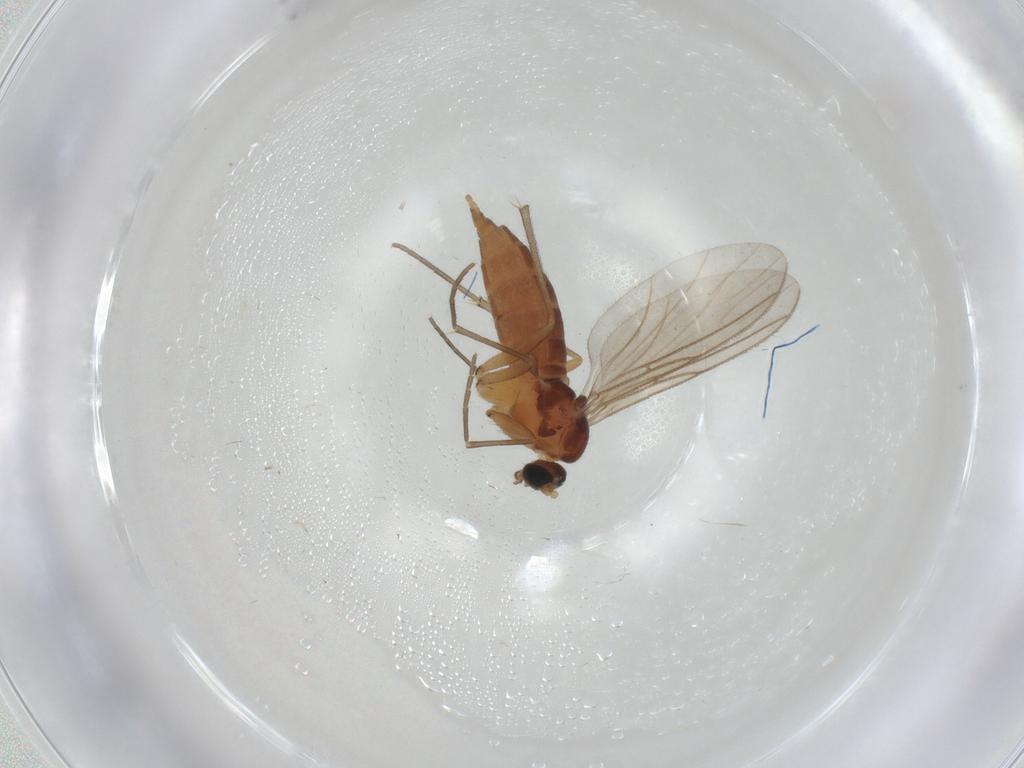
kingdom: Animalia
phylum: Arthropoda
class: Insecta
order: Diptera
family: Sciaridae
